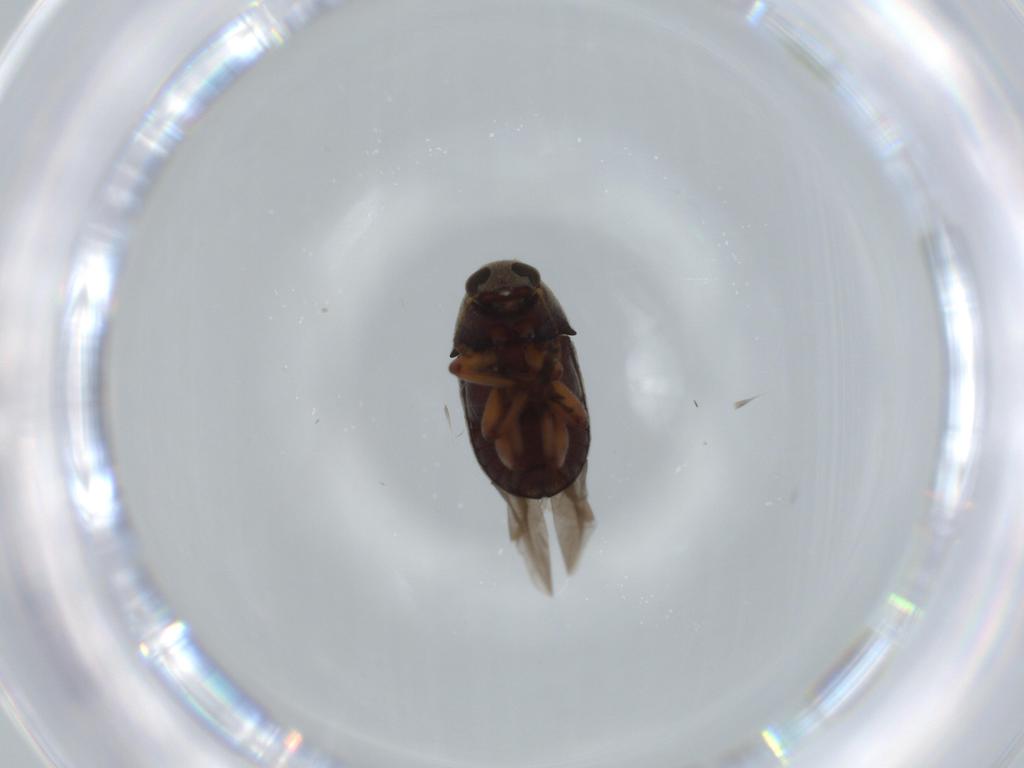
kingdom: Animalia
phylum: Arthropoda
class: Insecta
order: Coleoptera
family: Anthribidae
